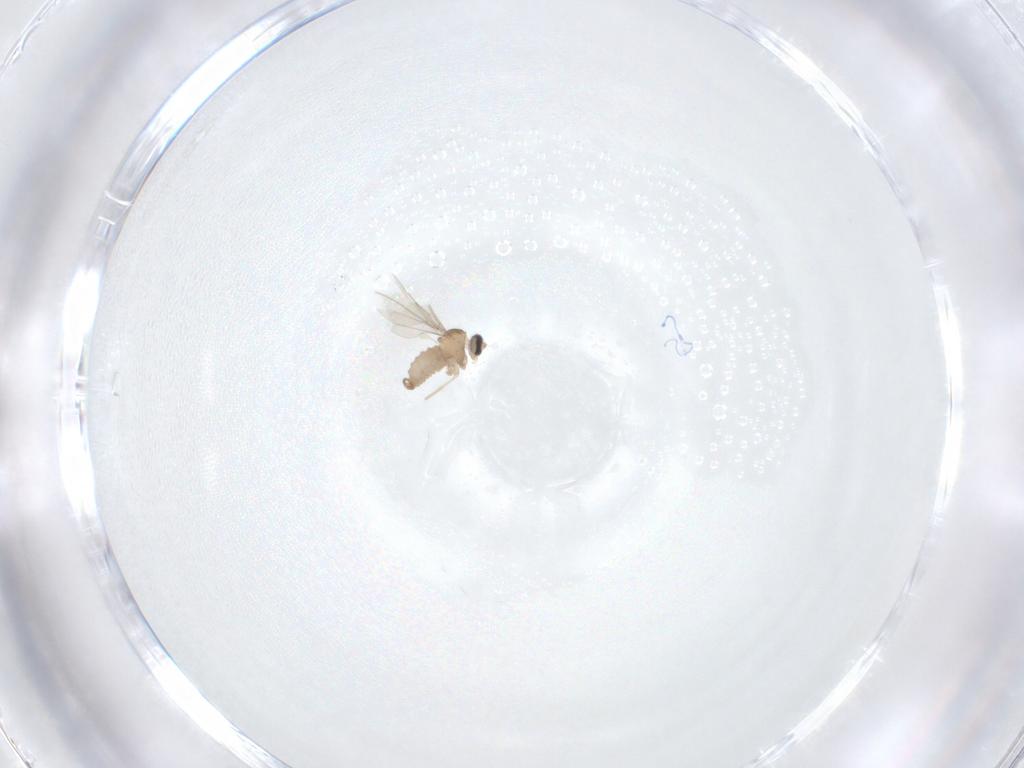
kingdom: Animalia
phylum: Arthropoda
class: Insecta
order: Diptera
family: Cecidomyiidae
